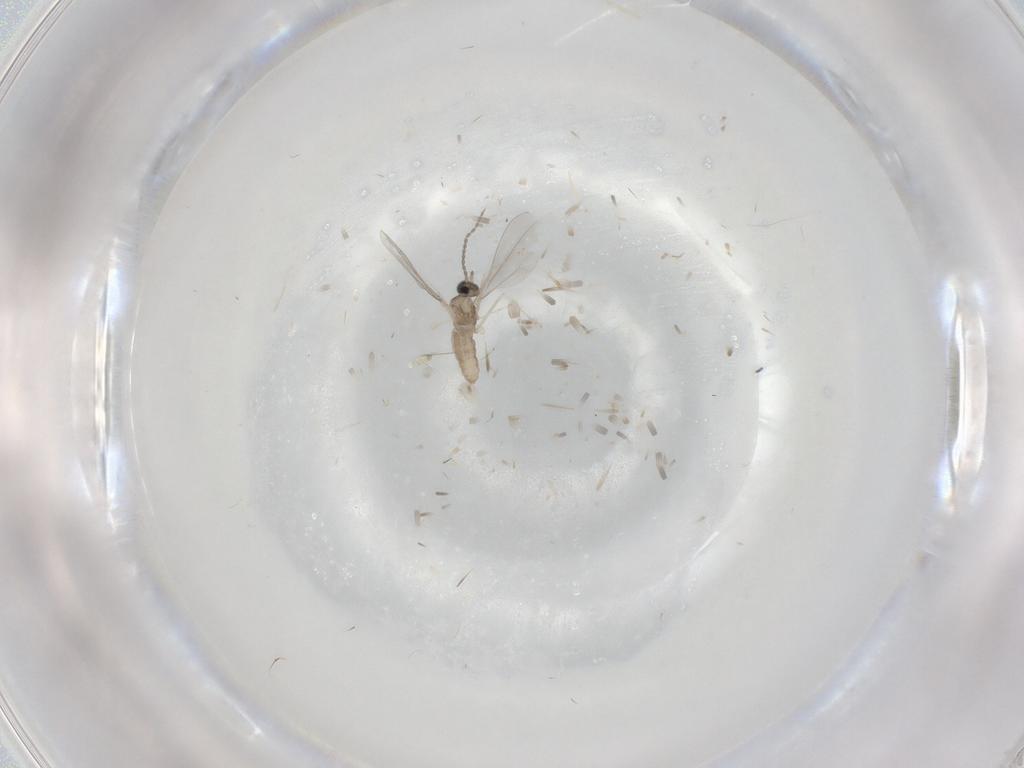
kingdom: Animalia
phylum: Arthropoda
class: Insecta
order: Diptera
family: Cecidomyiidae
